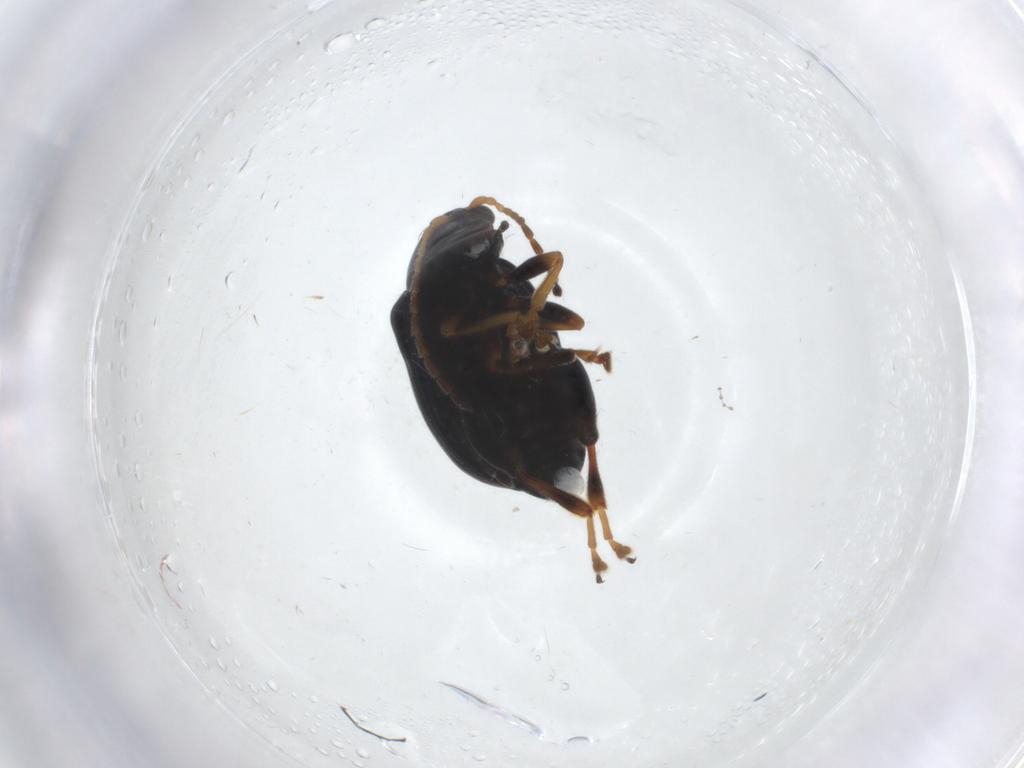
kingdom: Animalia
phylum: Arthropoda
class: Insecta
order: Coleoptera
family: Chrysomelidae
